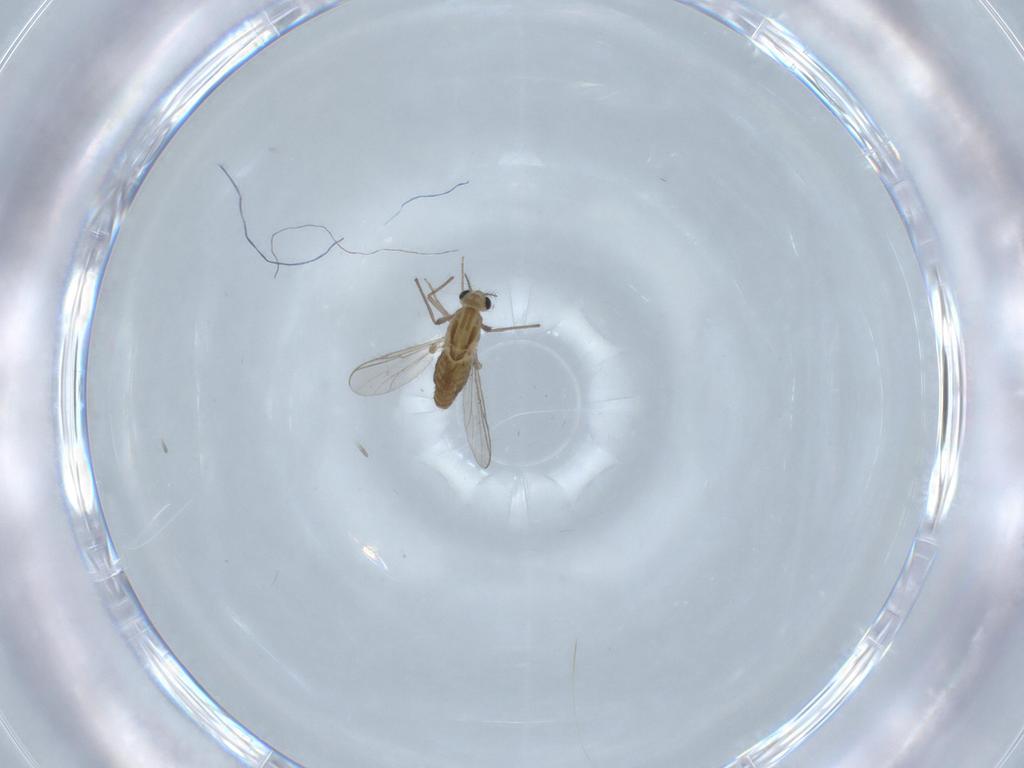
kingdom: Animalia
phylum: Arthropoda
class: Insecta
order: Diptera
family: Chironomidae
